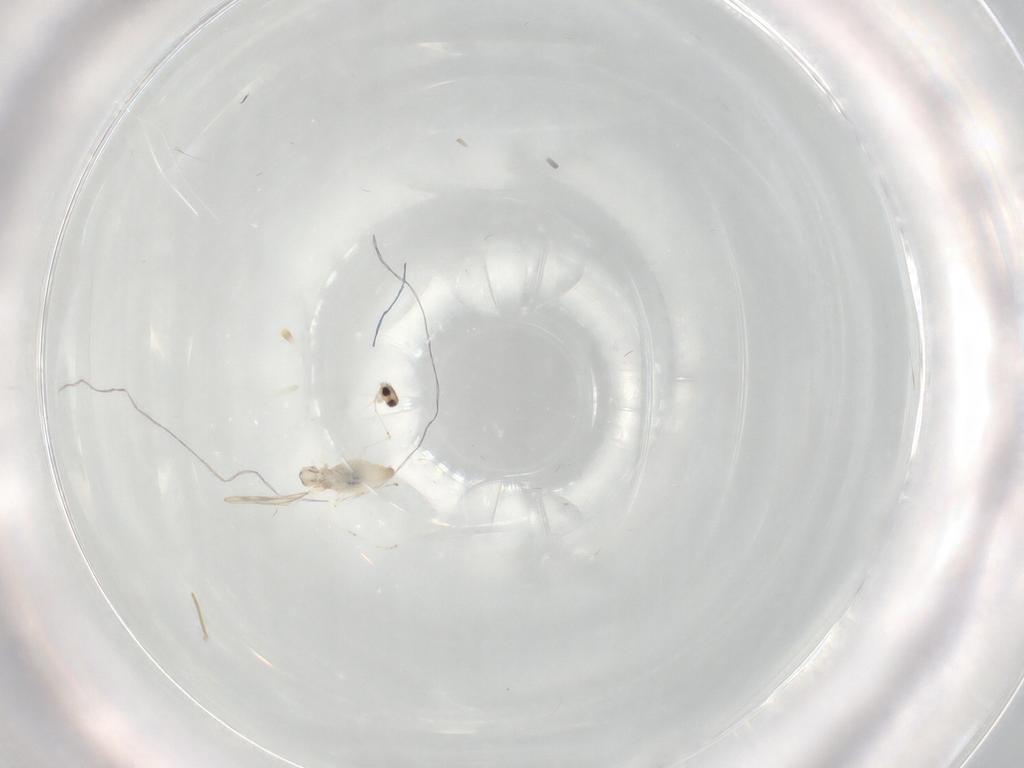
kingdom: Animalia
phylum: Arthropoda
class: Insecta
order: Diptera
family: Cecidomyiidae
